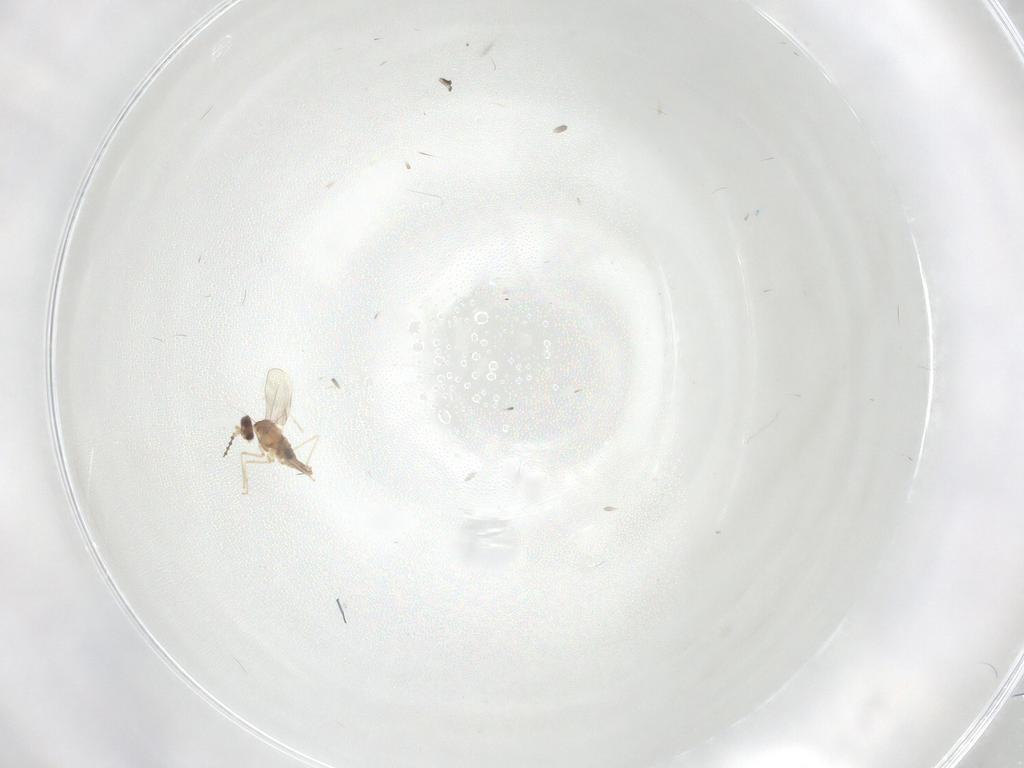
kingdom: Animalia
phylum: Arthropoda
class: Insecta
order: Diptera
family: Cecidomyiidae
